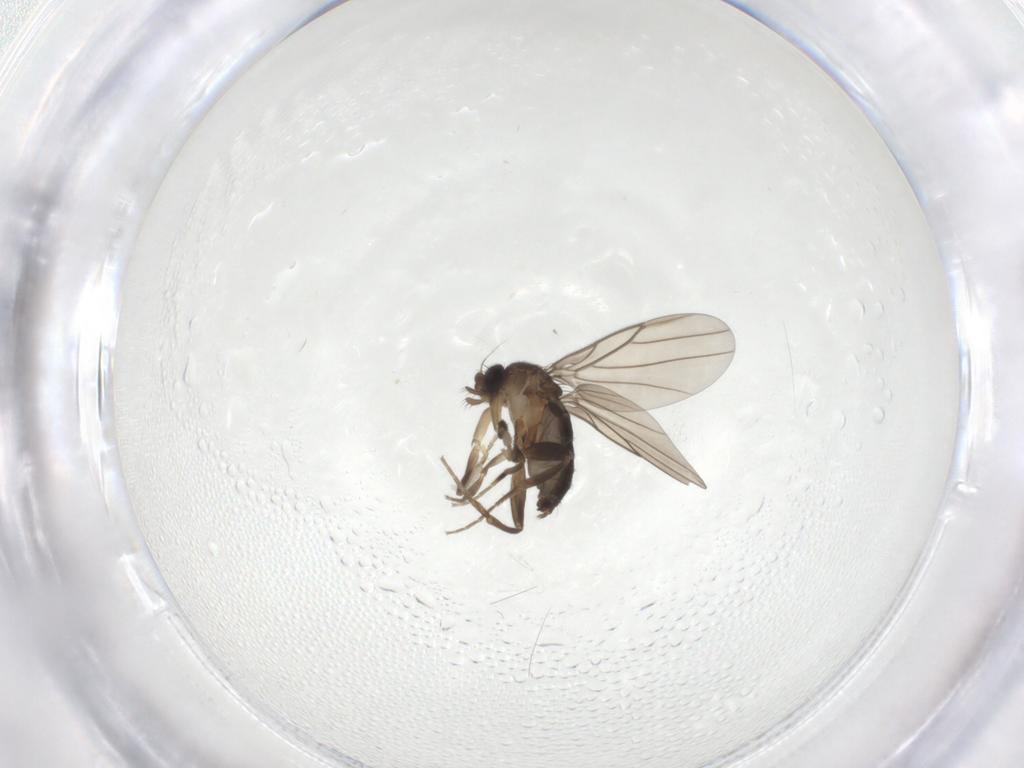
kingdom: Animalia
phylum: Arthropoda
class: Insecta
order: Diptera
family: Phoridae
